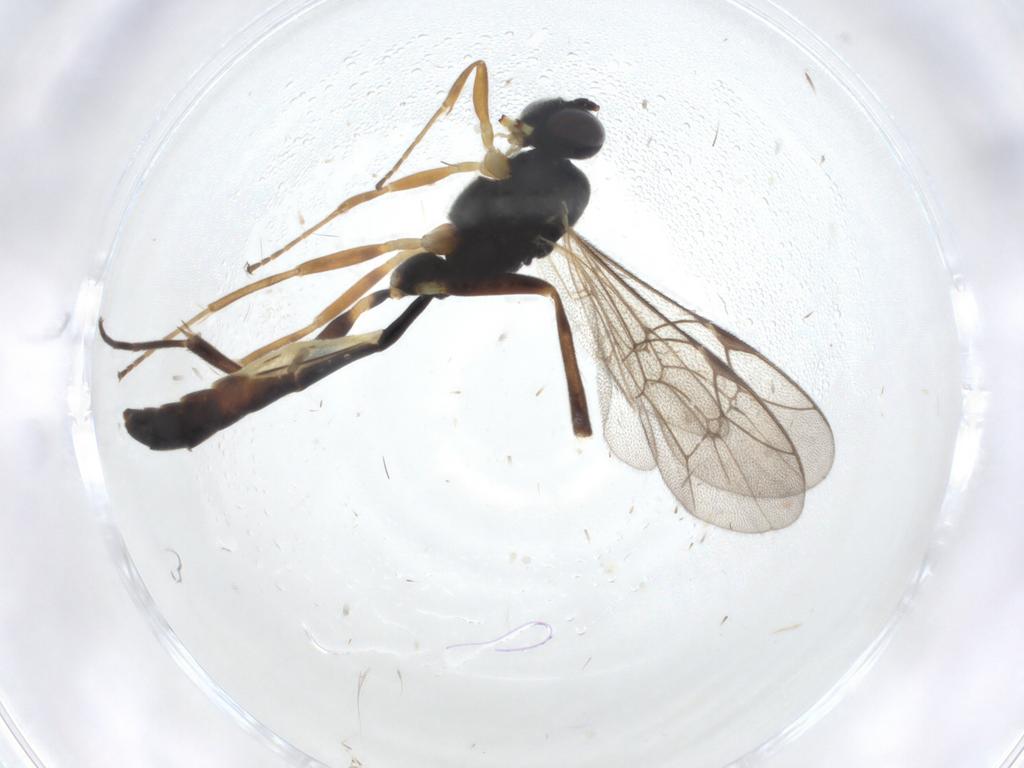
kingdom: Animalia
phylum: Arthropoda
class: Insecta
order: Hymenoptera
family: Ichneumonidae
